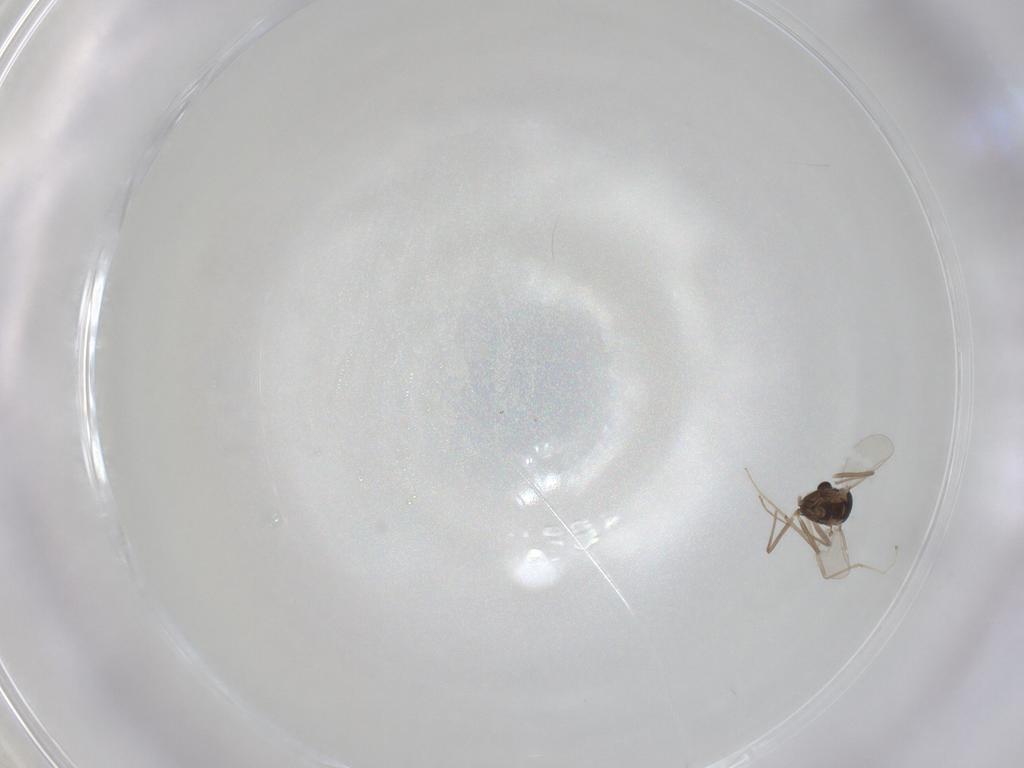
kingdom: Animalia
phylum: Arthropoda
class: Insecta
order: Diptera
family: Chironomidae
